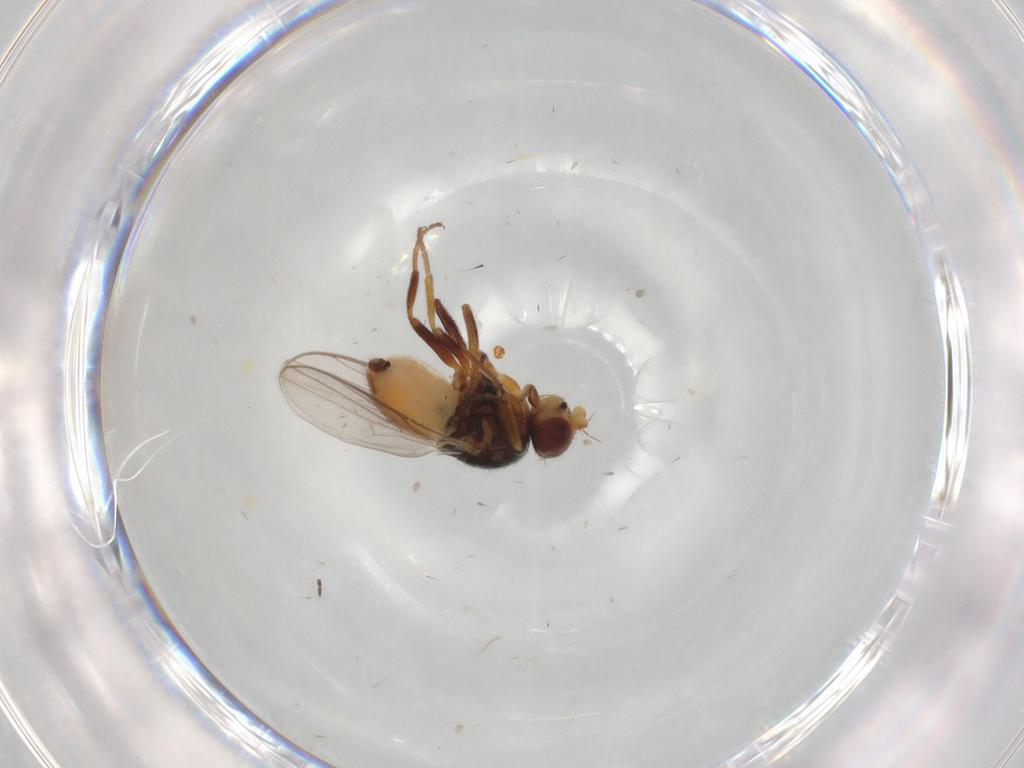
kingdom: Animalia
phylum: Arthropoda
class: Insecta
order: Diptera
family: Chloropidae
